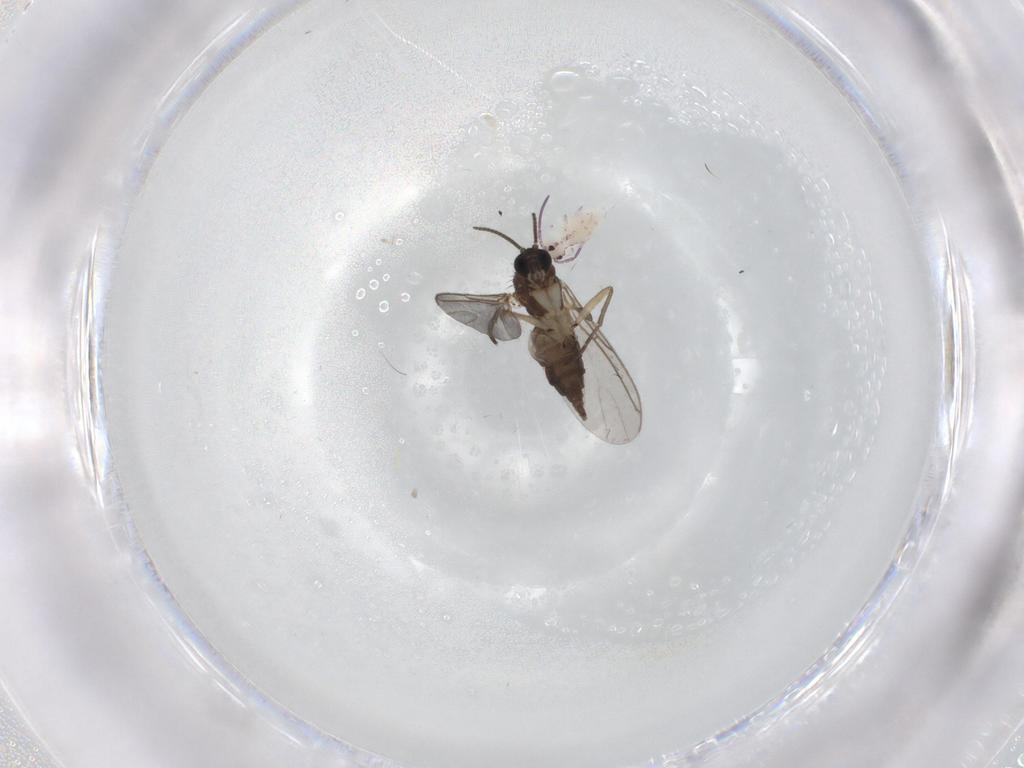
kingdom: Animalia
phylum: Arthropoda
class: Insecta
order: Diptera
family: Sciaridae
